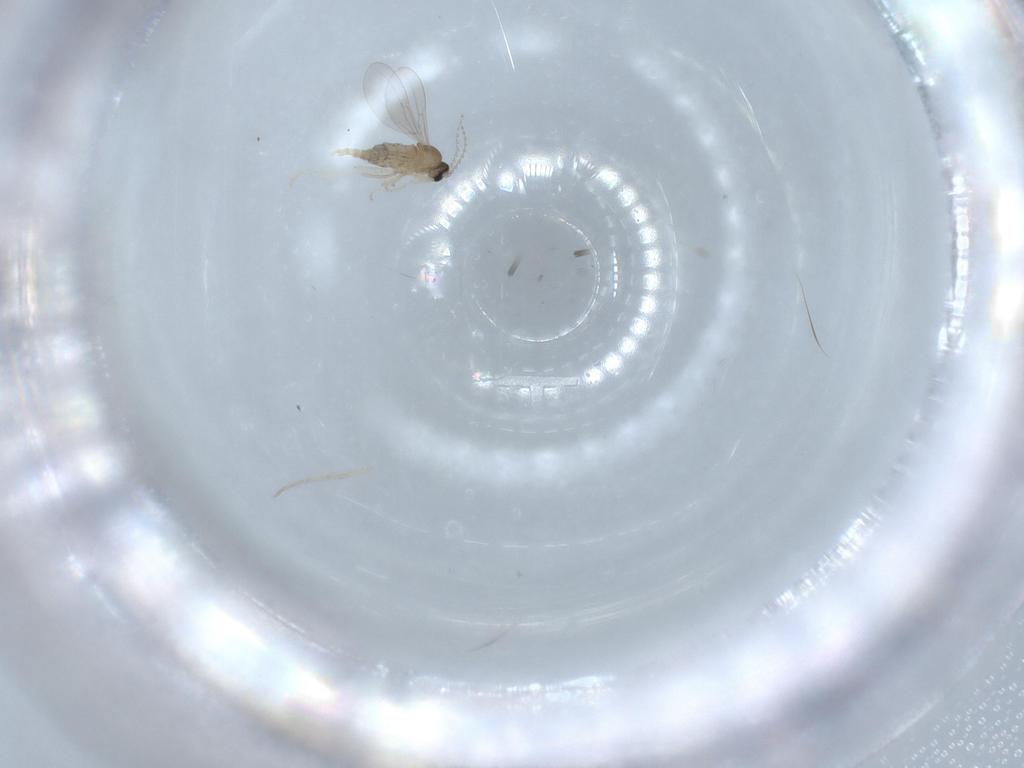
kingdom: Animalia
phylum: Arthropoda
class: Insecta
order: Diptera
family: Cecidomyiidae
